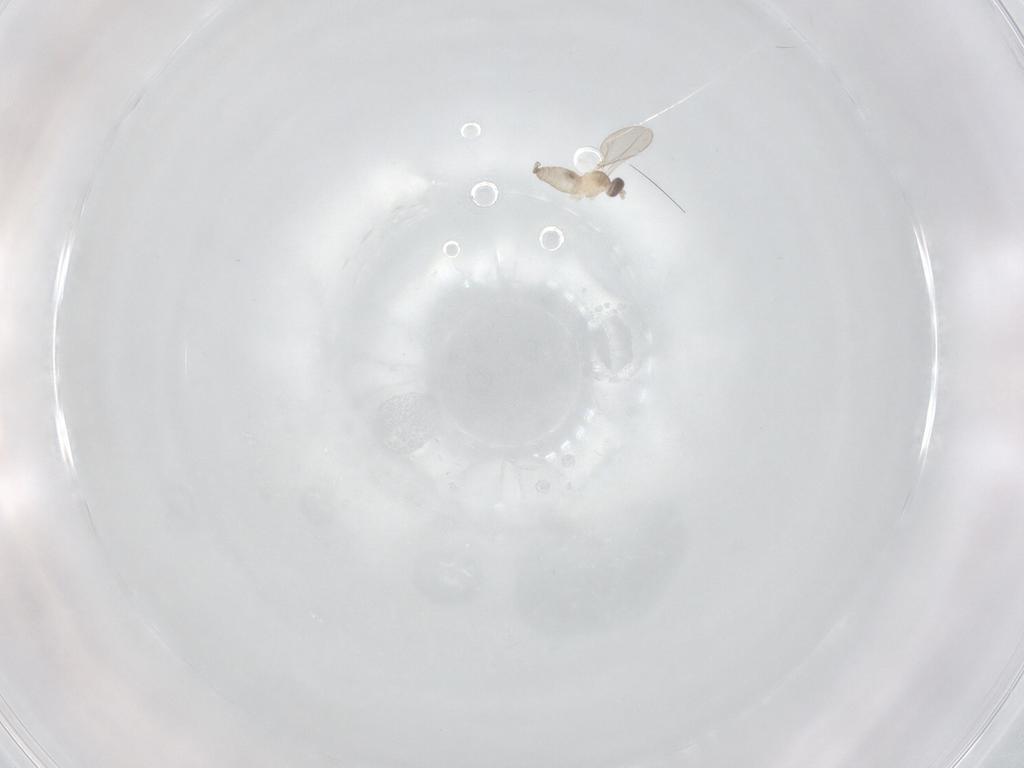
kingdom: Animalia
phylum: Arthropoda
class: Insecta
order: Diptera
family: Cecidomyiidae
